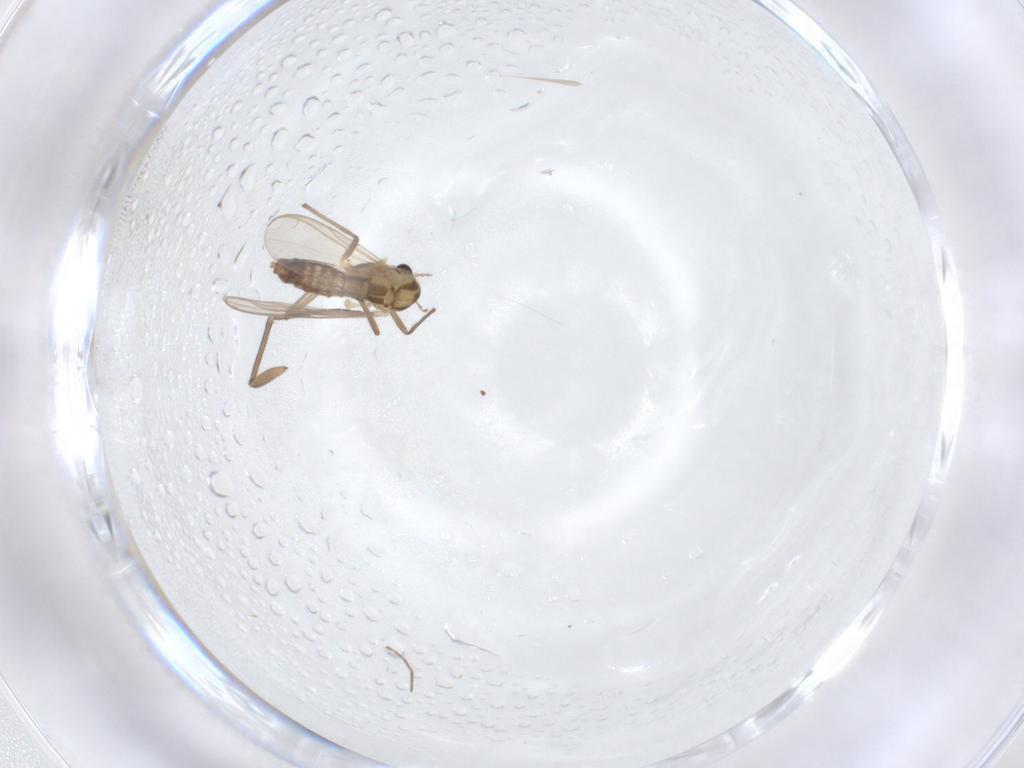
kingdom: Animalia
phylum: Arthropoda
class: Insecta
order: Diptera
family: Chironomidae
